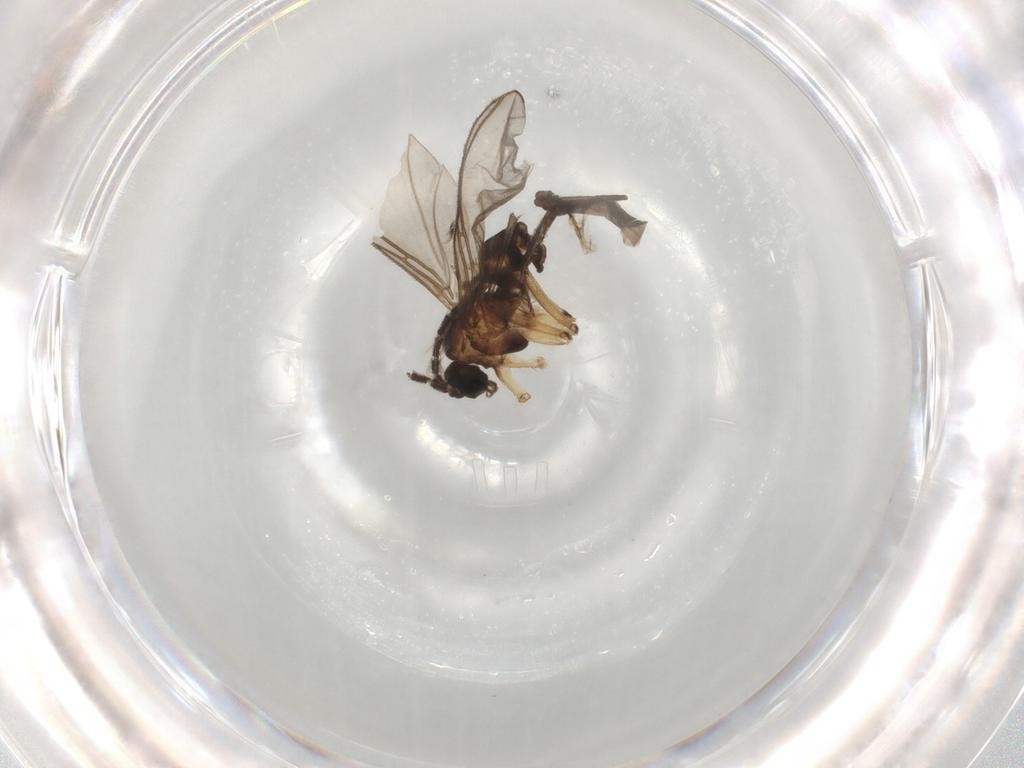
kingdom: Animalia
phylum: Arthropoda
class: Insecta
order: Diptera
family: Sciaridae
